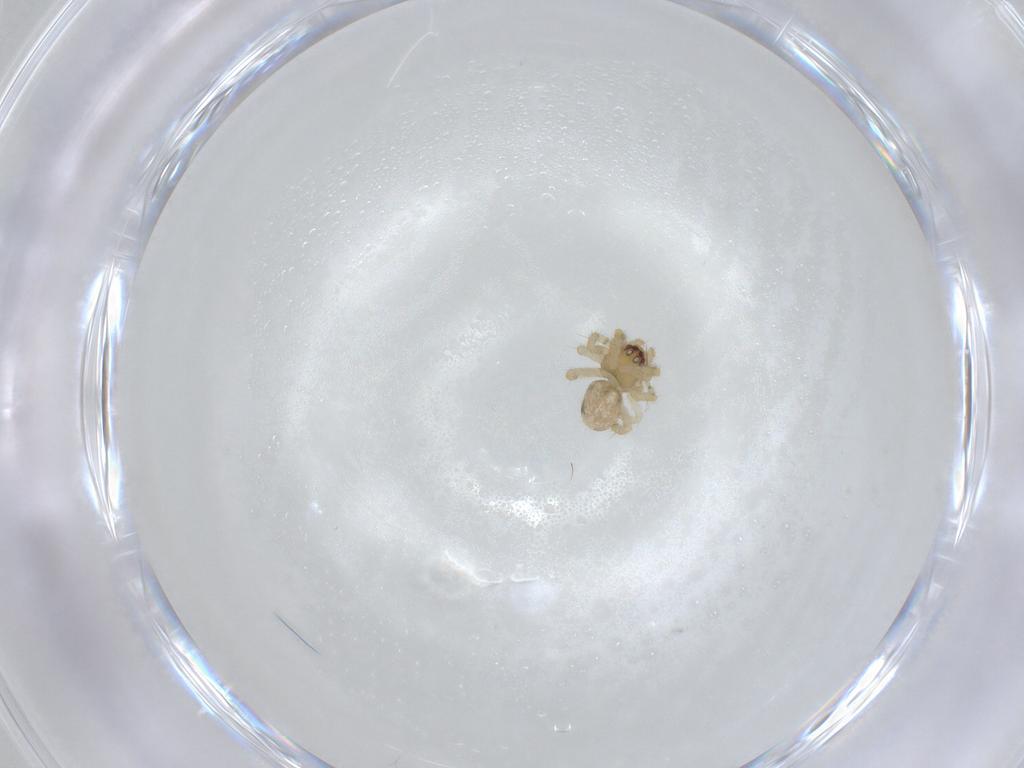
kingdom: Animalia
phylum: Arthropoda
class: Arachnida
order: Araneae
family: Theridiidae
